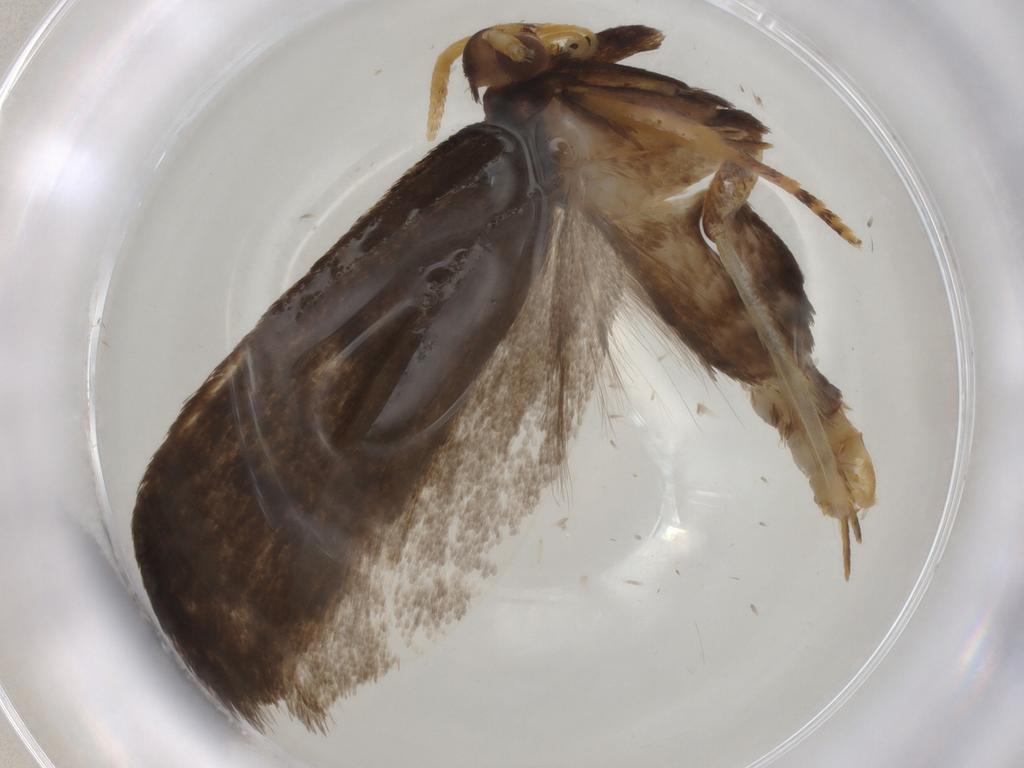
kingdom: Animalia
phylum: Arthropoda
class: Insecta
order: Lepidoptera
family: Lecithoceridae
